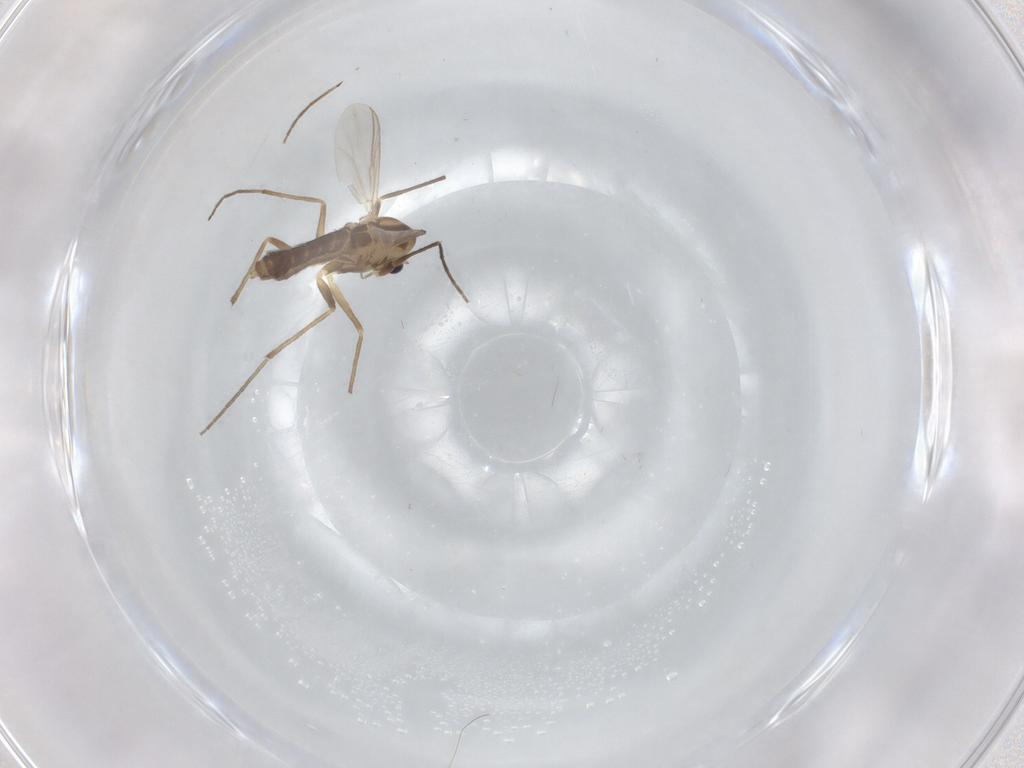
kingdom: Animalia
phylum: Arthropoda
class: Insecta
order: Diptera
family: Chironomidae
